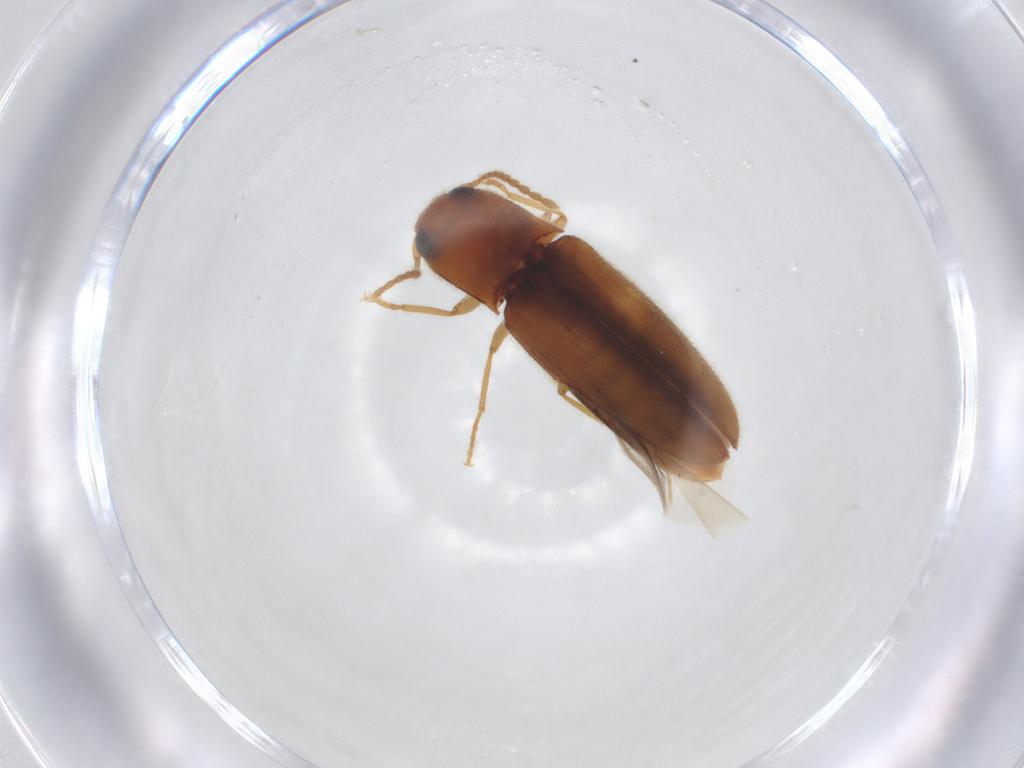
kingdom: Animalia
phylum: Arthropoda
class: Insecta
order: Coleoptera
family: Elateridae
